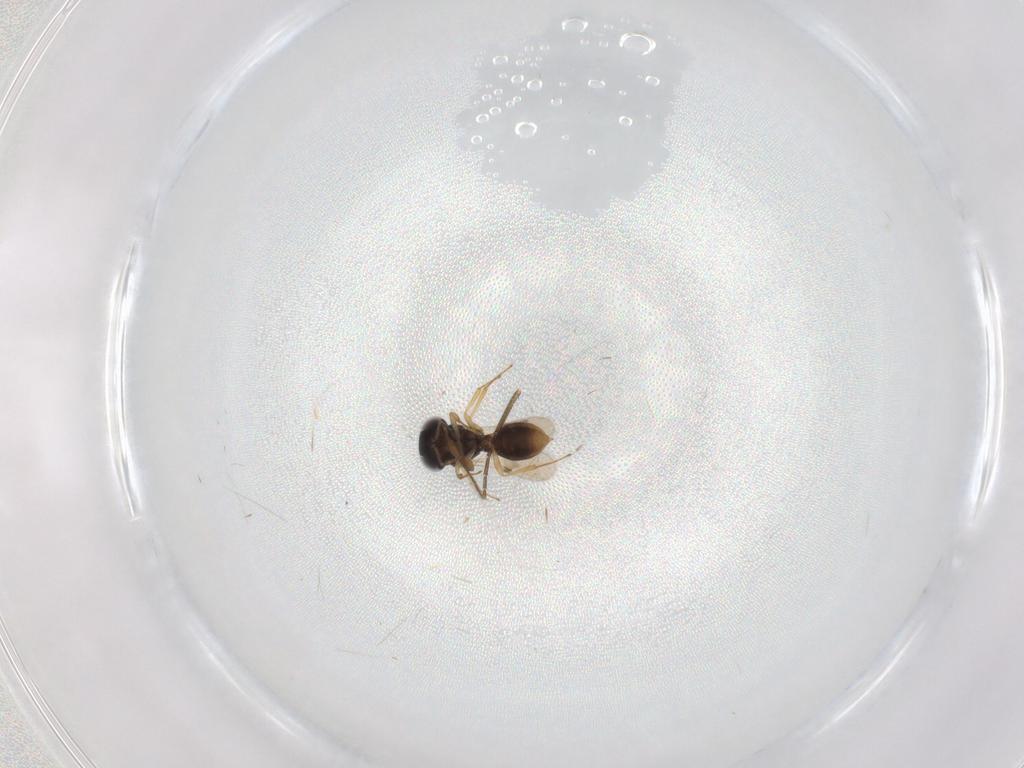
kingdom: Animalia
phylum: Arthropoda
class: Insecta
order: Hymenoptera
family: Scelionidae
